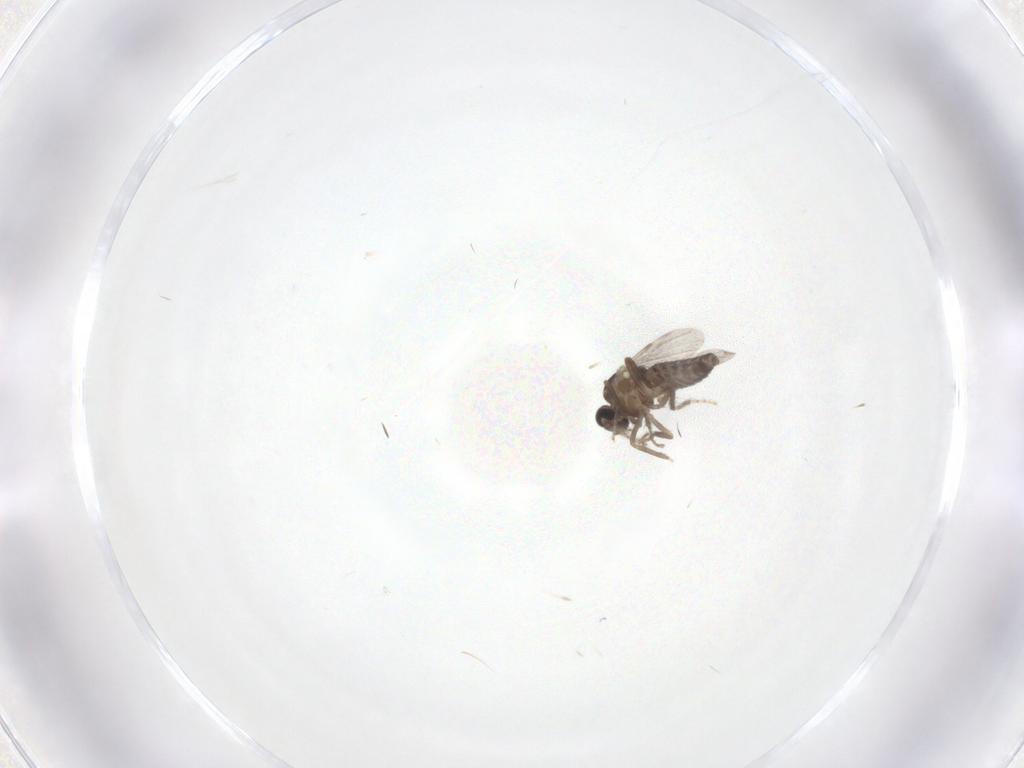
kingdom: Animalia
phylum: Arthropoda
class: Insecta
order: Diptera
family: Ceratopogonidae
